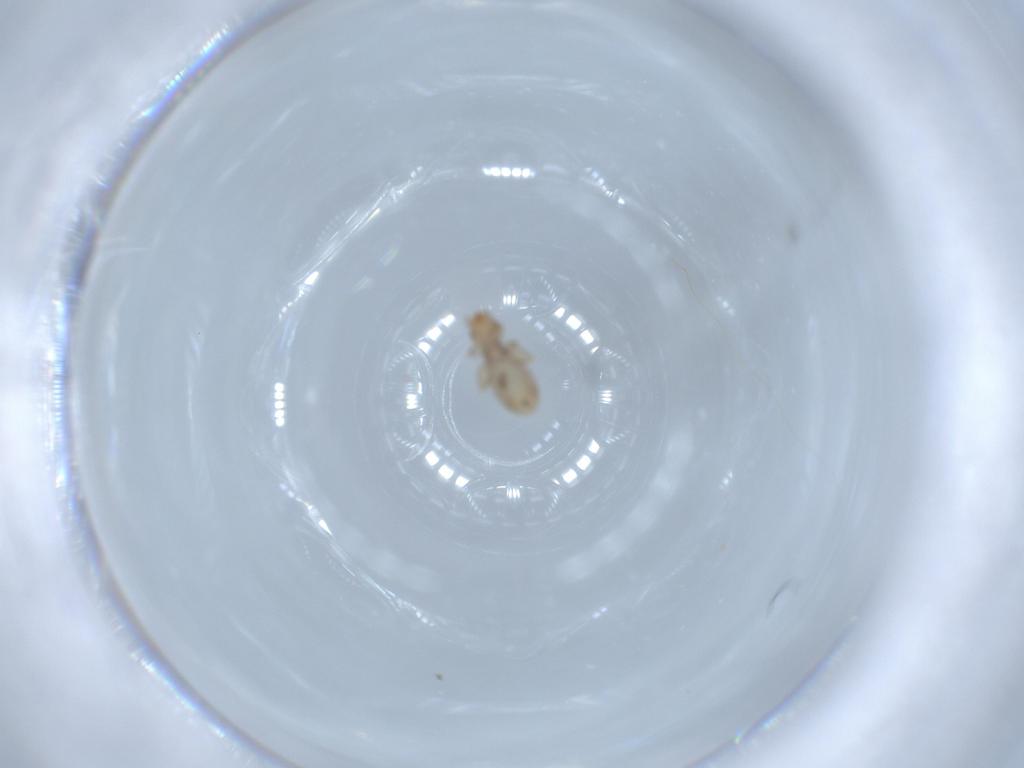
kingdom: Animalia
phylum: Arthropoda
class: Insecta
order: Psocodea
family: Liposcelididae
